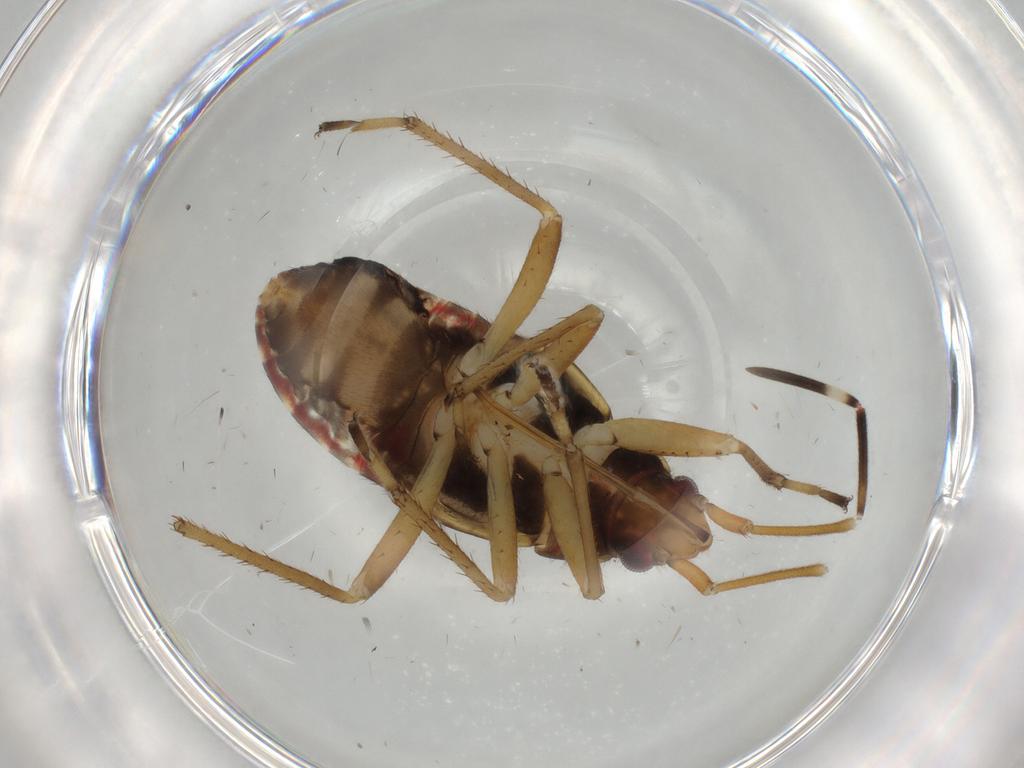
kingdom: Animalia
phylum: Arthropoda
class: Insecta
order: Hemiptera
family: Rhyparochromidae
